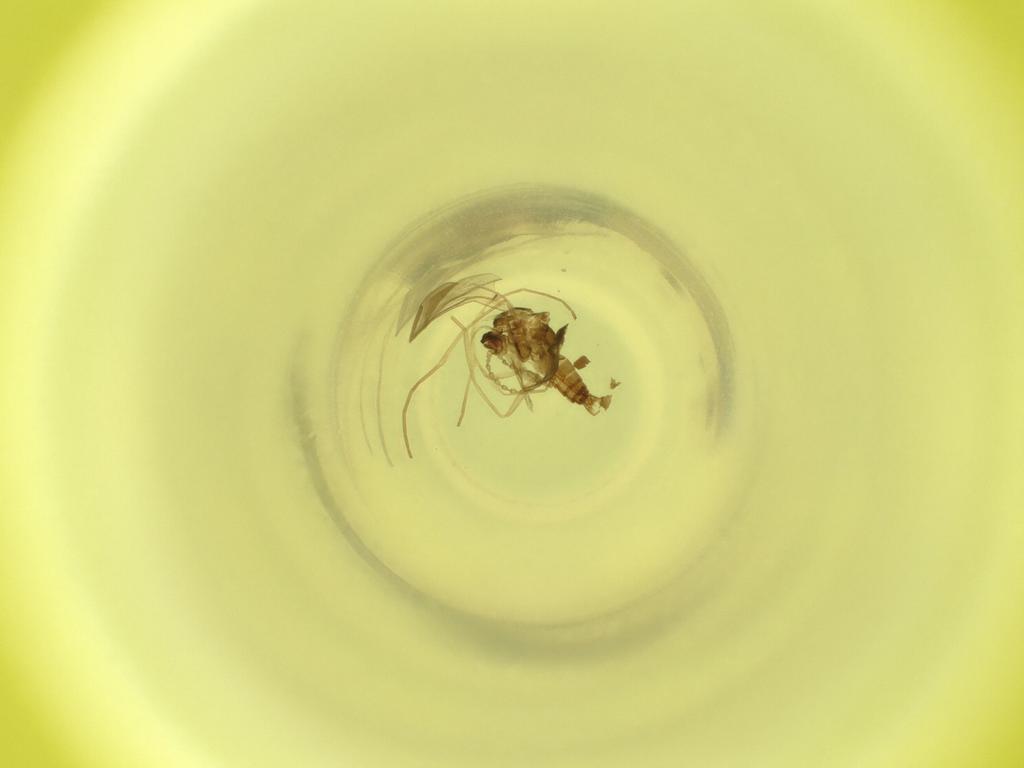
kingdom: Animalia
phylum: Arthropoda
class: Insecta
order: Diptera
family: Cecidomyiidae
